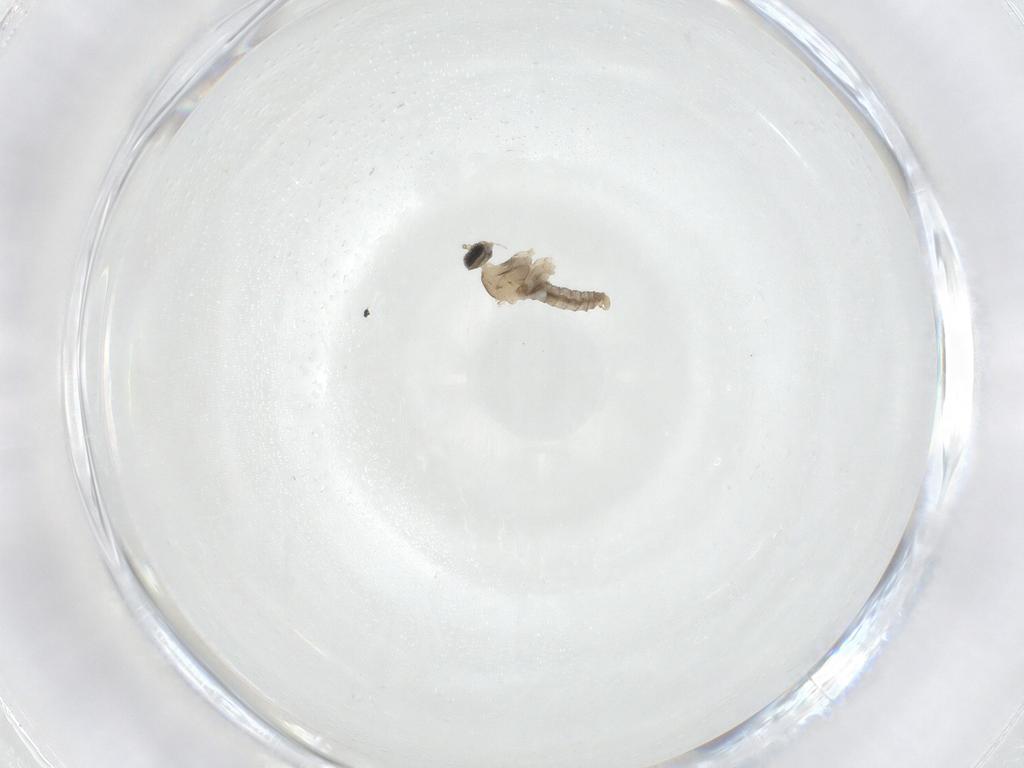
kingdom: Animalia
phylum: Arthropoda
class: Insecta
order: Diptera
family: Cecidomyiidae
